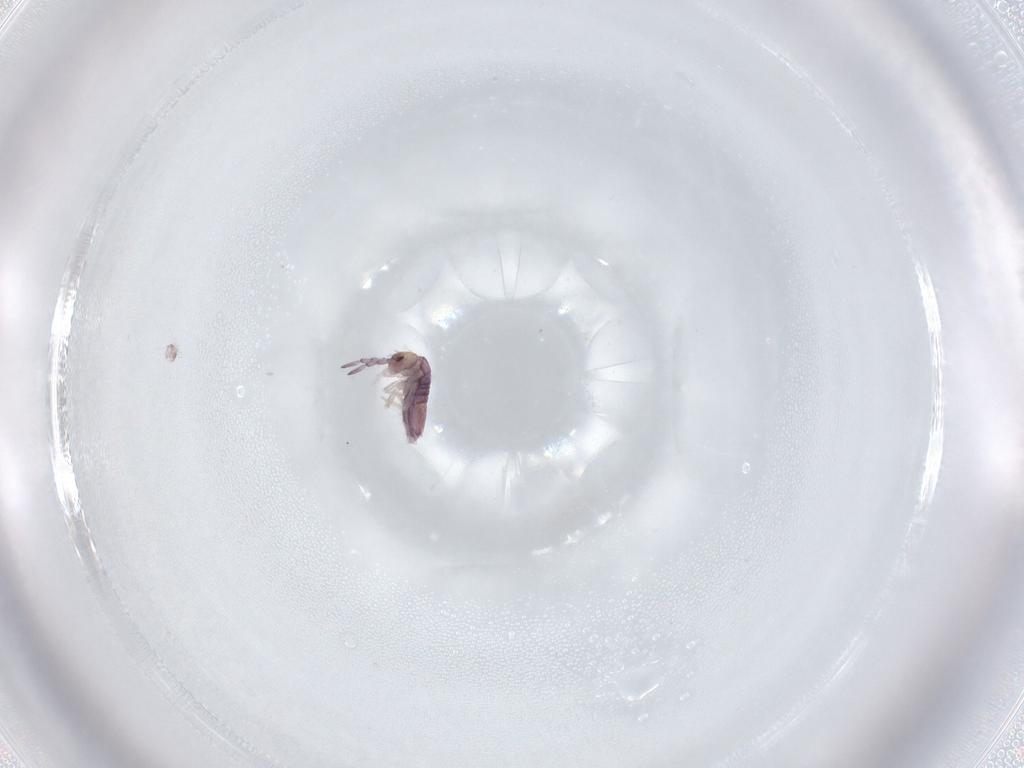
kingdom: Animalia
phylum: Arthropoda
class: Collembola
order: Entomobryomorpha
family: Entomobryidae
